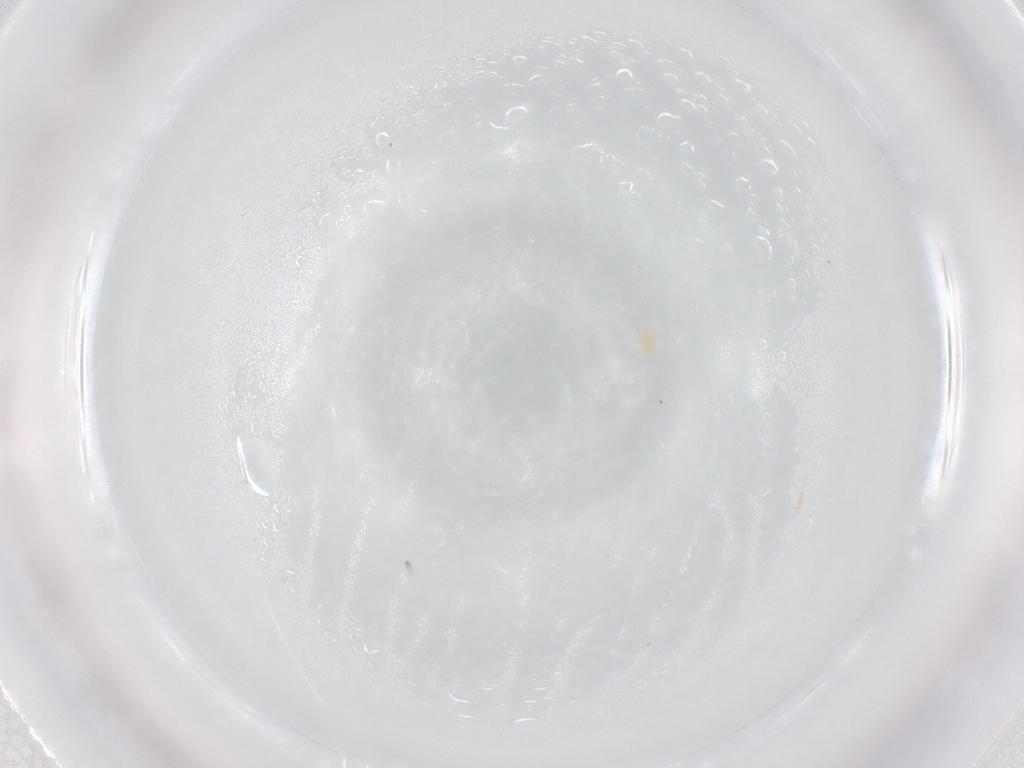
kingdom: Animalia
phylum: Arthropoda
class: Arachnida
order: Trombidiformes
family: Tetranychidae
